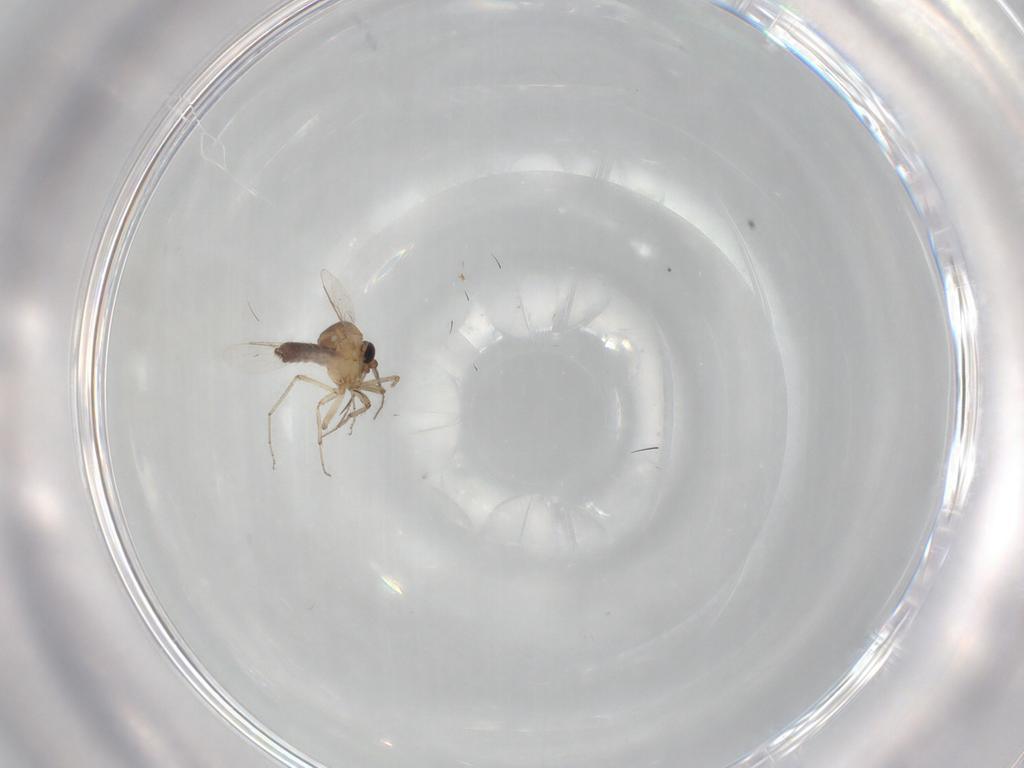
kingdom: Animalia
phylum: Arthropoda
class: Insecta
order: Diptera
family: Ceratopogonidae
